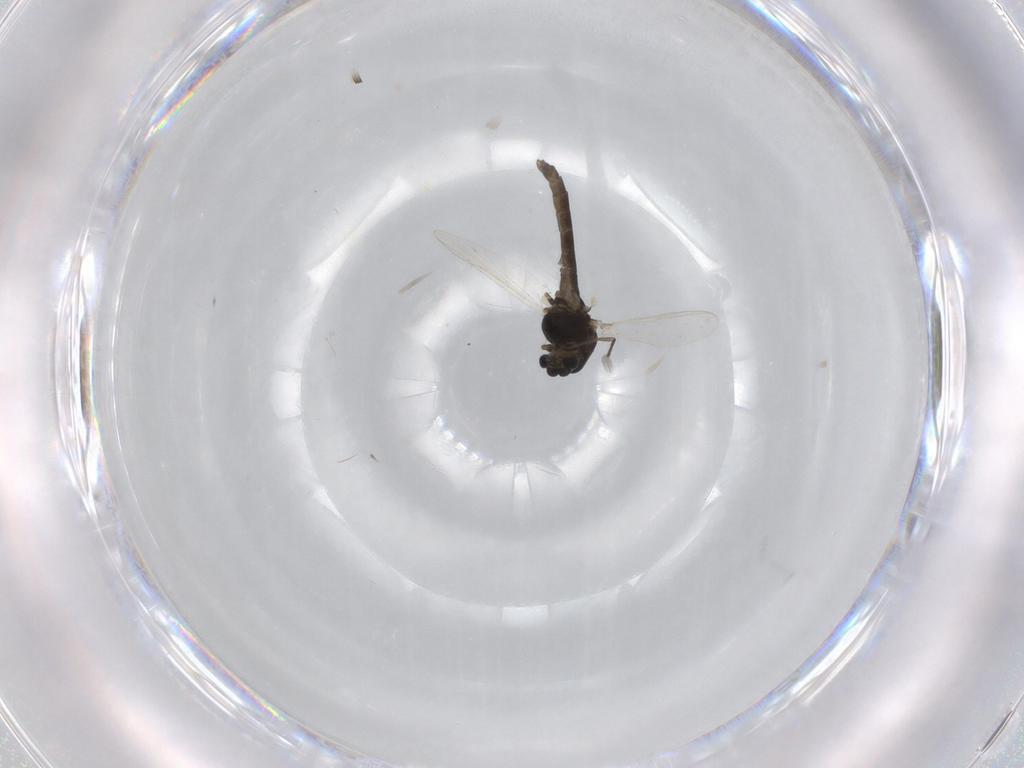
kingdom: Animalia
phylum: Arthropoda
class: Insecta
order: Diptera
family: Chironomidae
